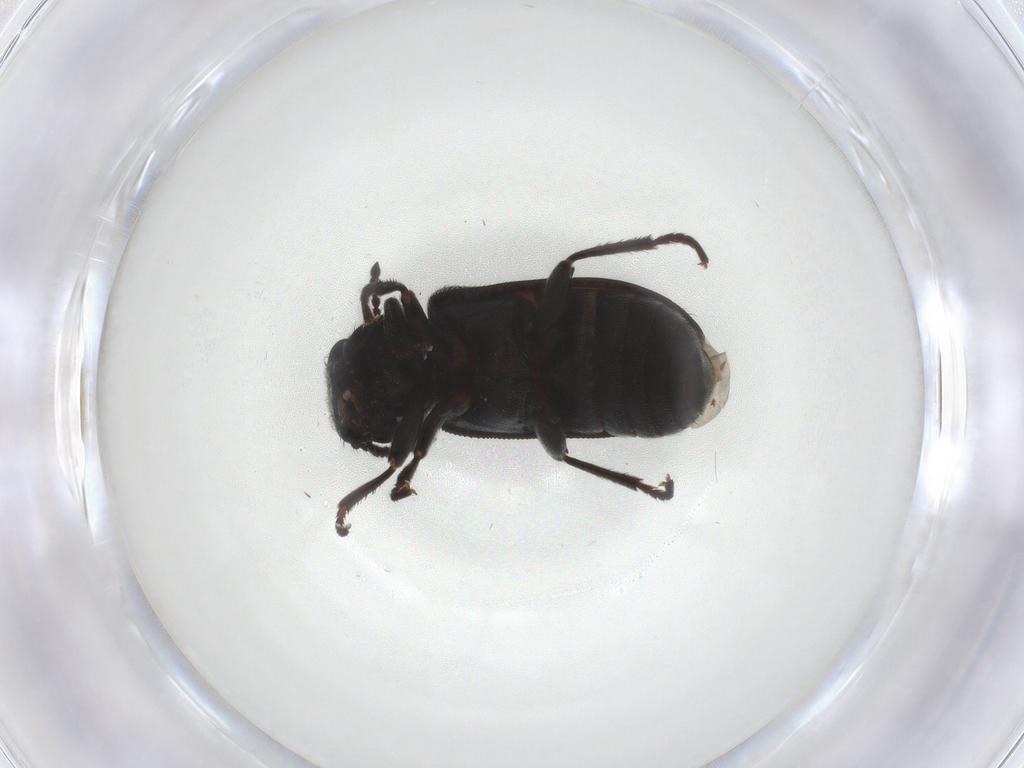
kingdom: Animalia
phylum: Arthropoda
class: Insecta
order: Coleoptera
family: Melyridae
